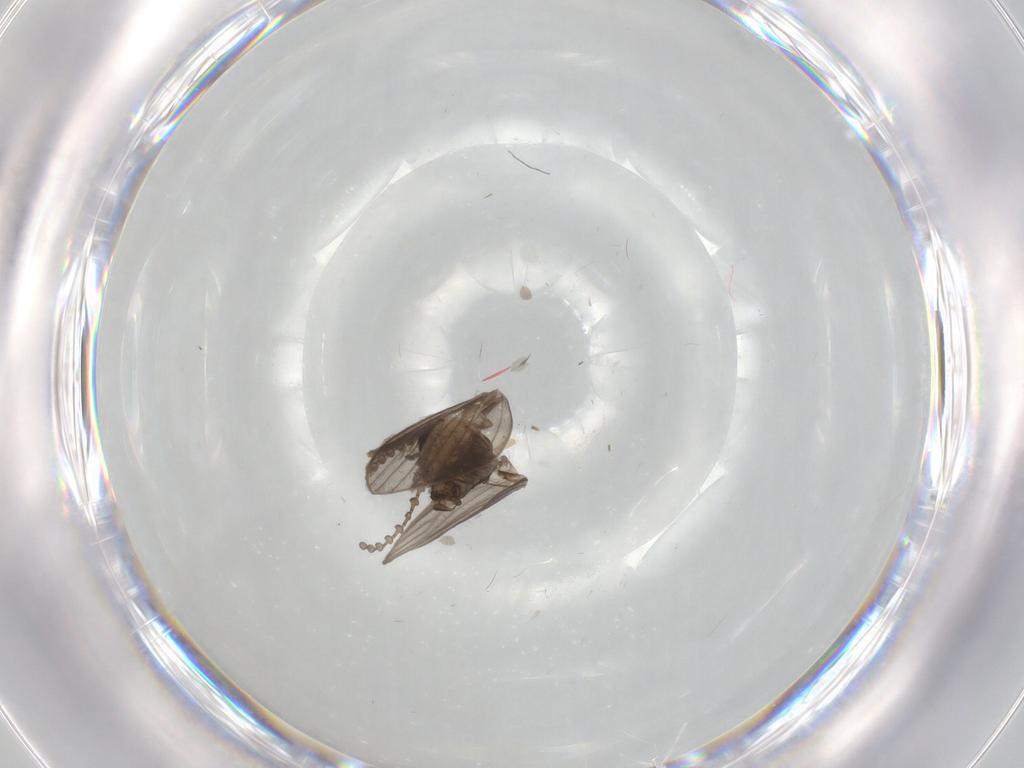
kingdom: Animalia
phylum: Arthropoda
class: Insecta
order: Diptera
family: Psychodidae
